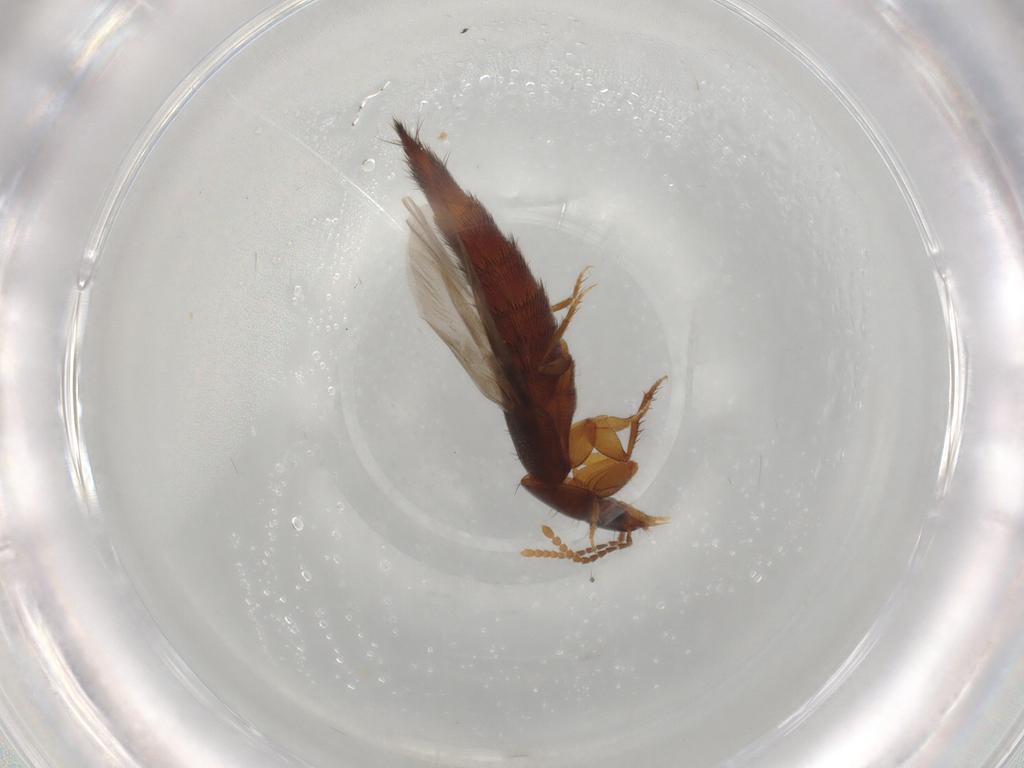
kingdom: Animalia
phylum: Arthropoda
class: Insecta
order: Coleoptera
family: Staphylinidae
